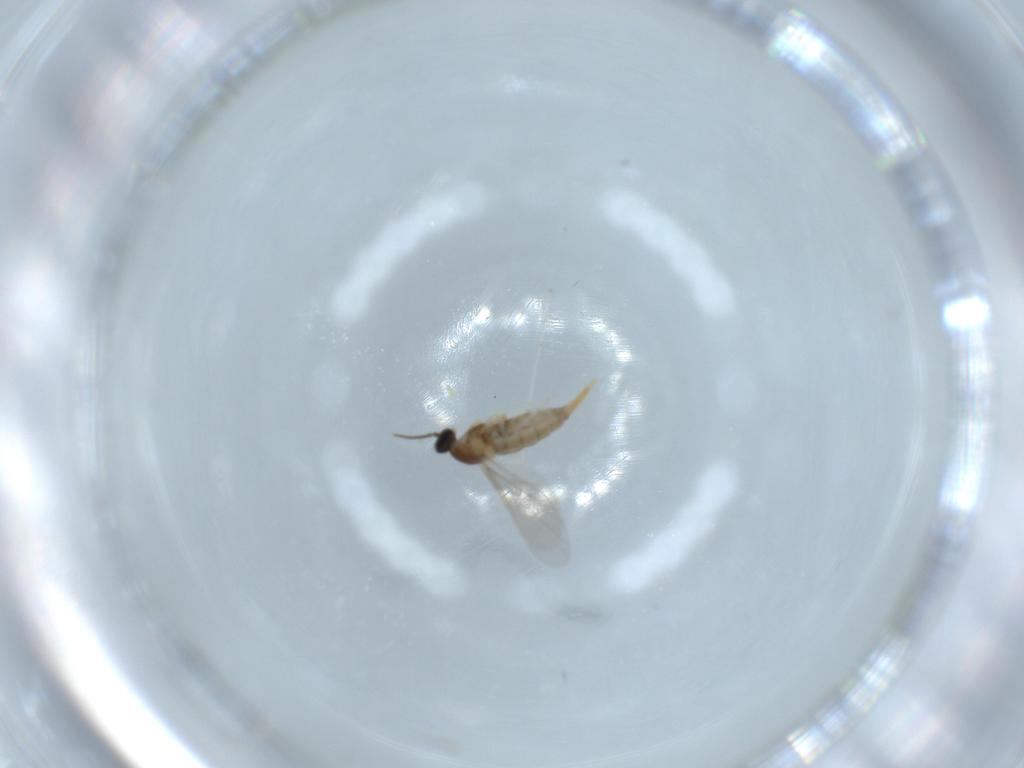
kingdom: Animalia
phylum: Arthropoda
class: Insecta
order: Diptera
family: Cecidomyiidae
